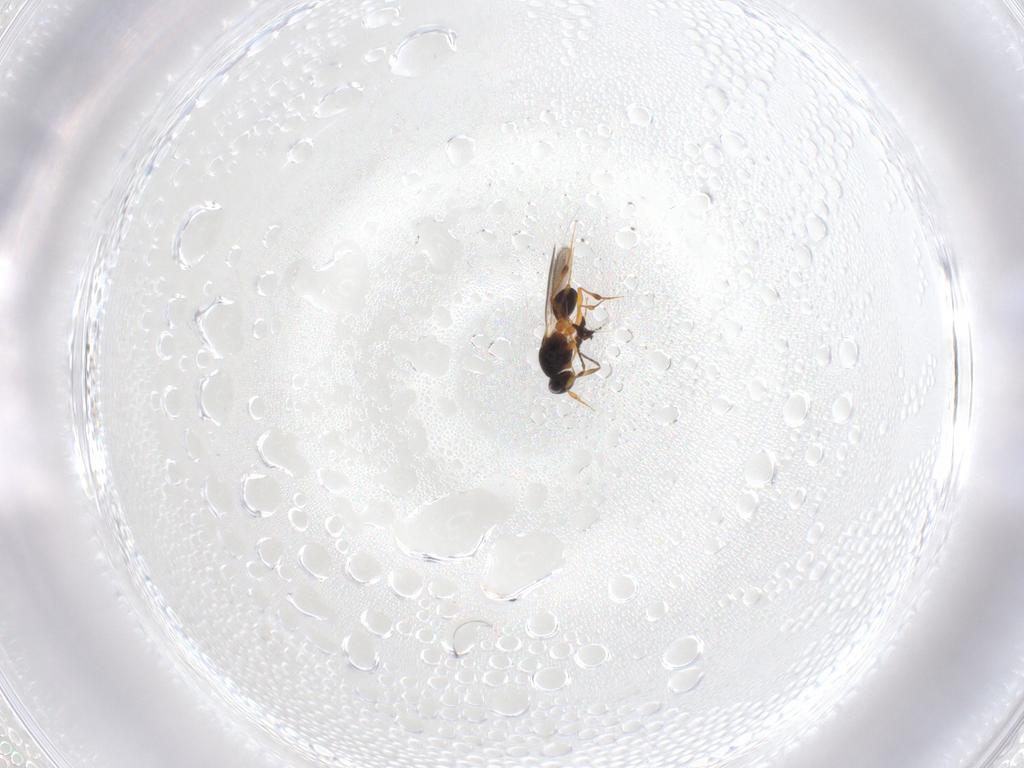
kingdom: Animalia
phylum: Arthropoda
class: Insecta
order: Hymenoptera
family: Platygastridae
